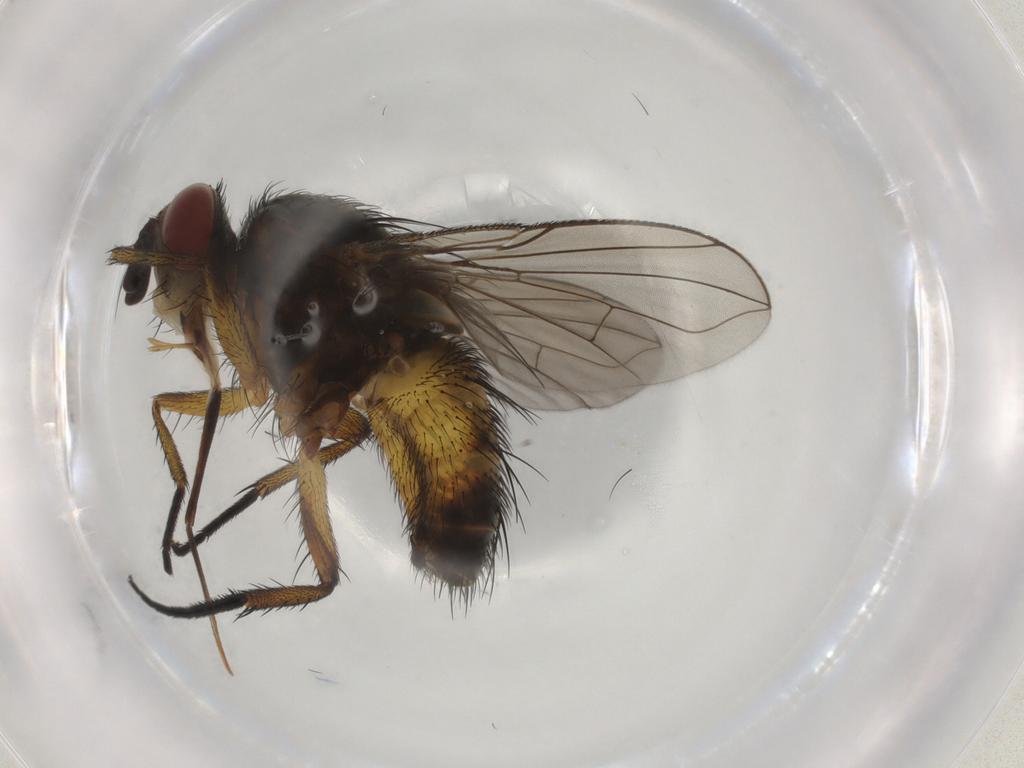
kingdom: Animalia
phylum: Arthropoda
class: Insecta
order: Diptera
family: Tachinidae
